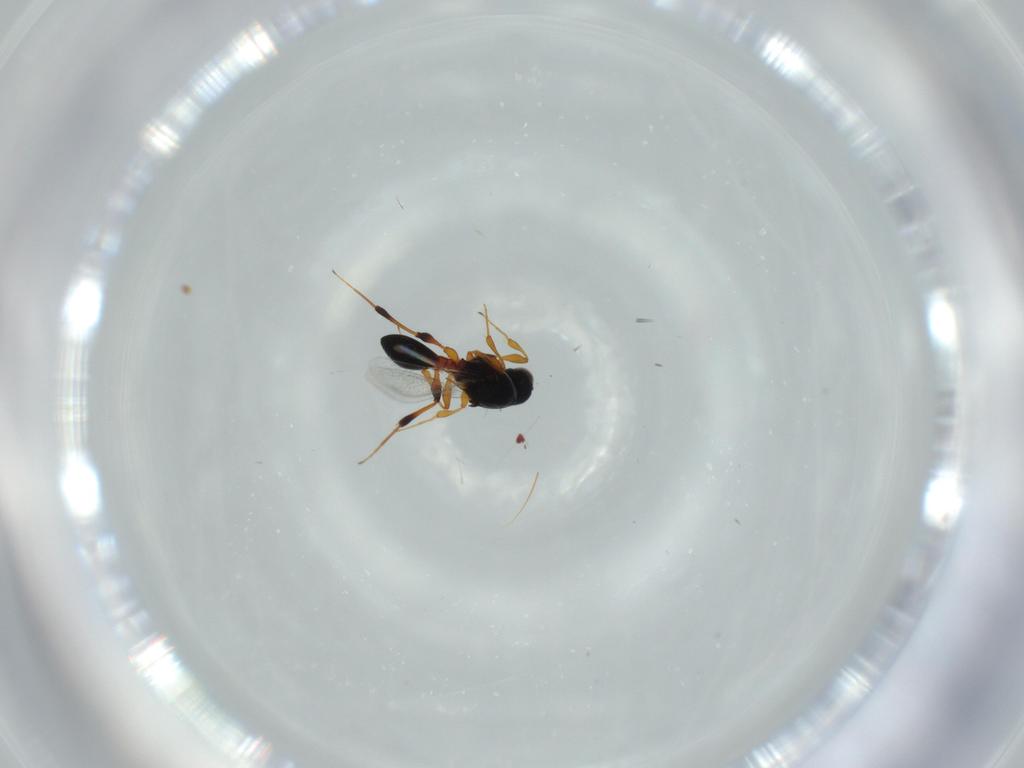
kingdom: Animalia
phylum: Arthropoda
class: Insecta
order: Hymenoptera
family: Platygastridae
